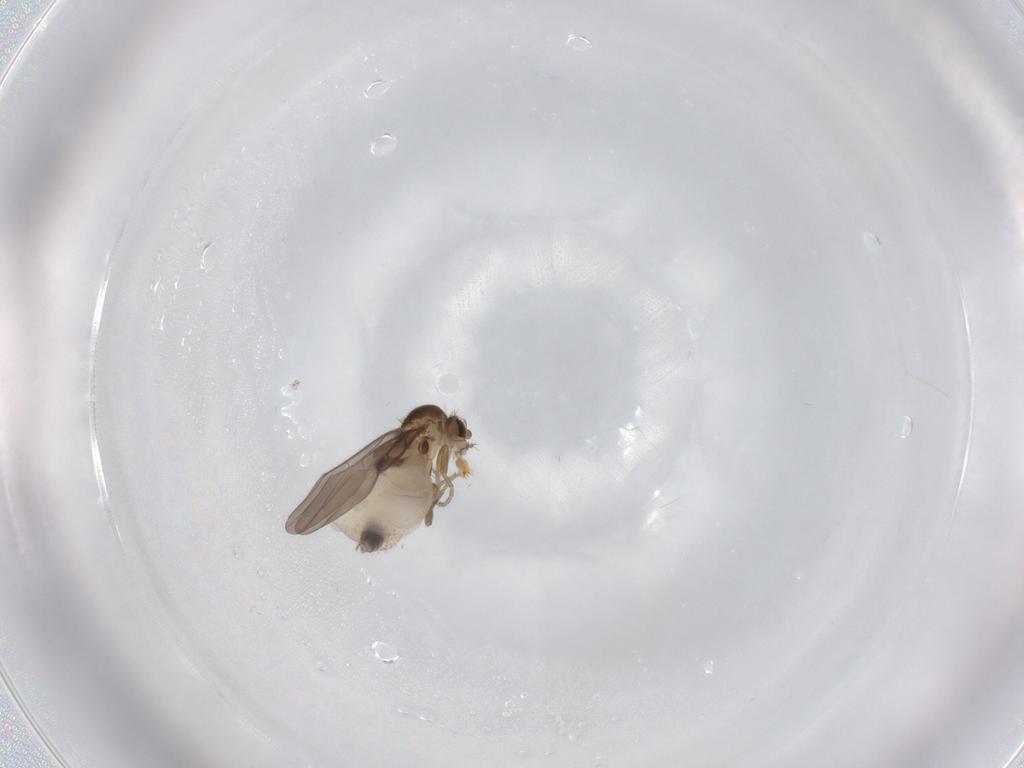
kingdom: Animalia
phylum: Arthropoda
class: Insecta
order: Diptera
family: Phoridae
